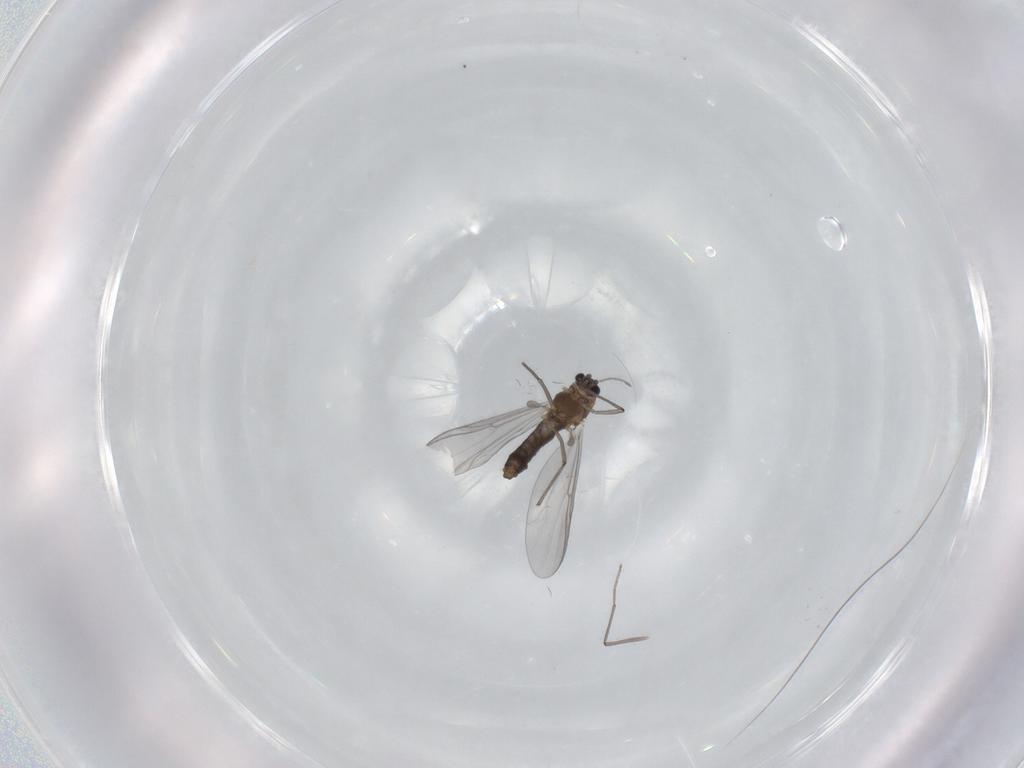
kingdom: Animalia
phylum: Arthropoda
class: Insecta
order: Diptera
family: Chironomidae
